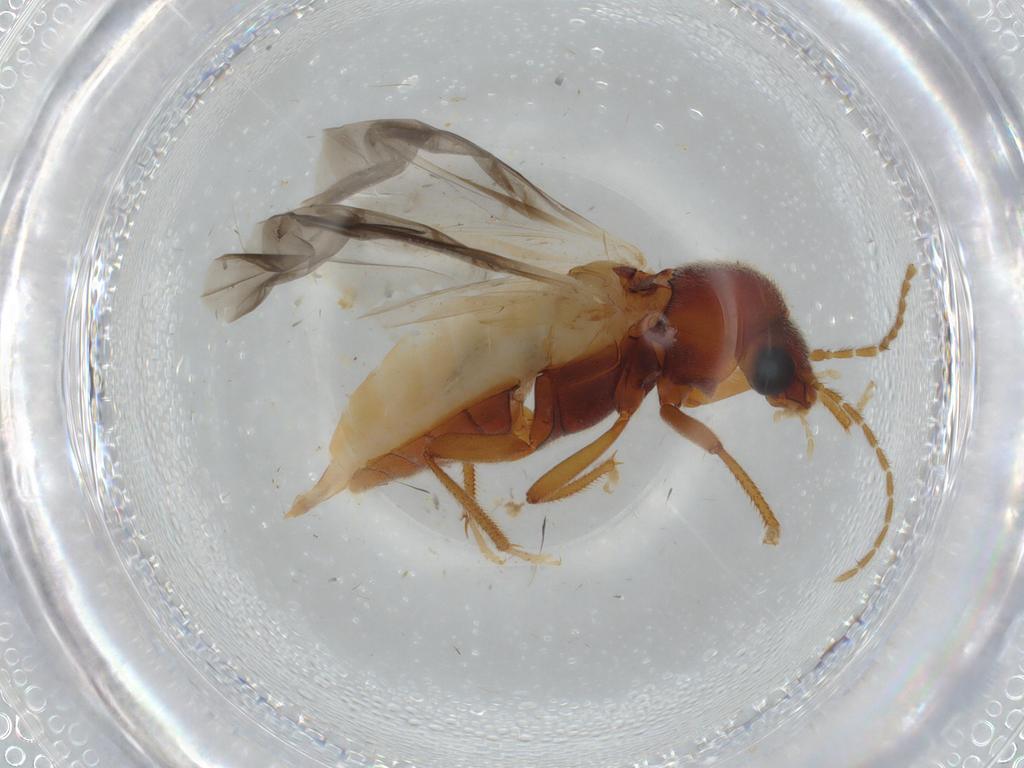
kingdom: Animalia
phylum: Arthropoda
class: Insecta
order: Coleoptera
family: Ptilodactylidae
